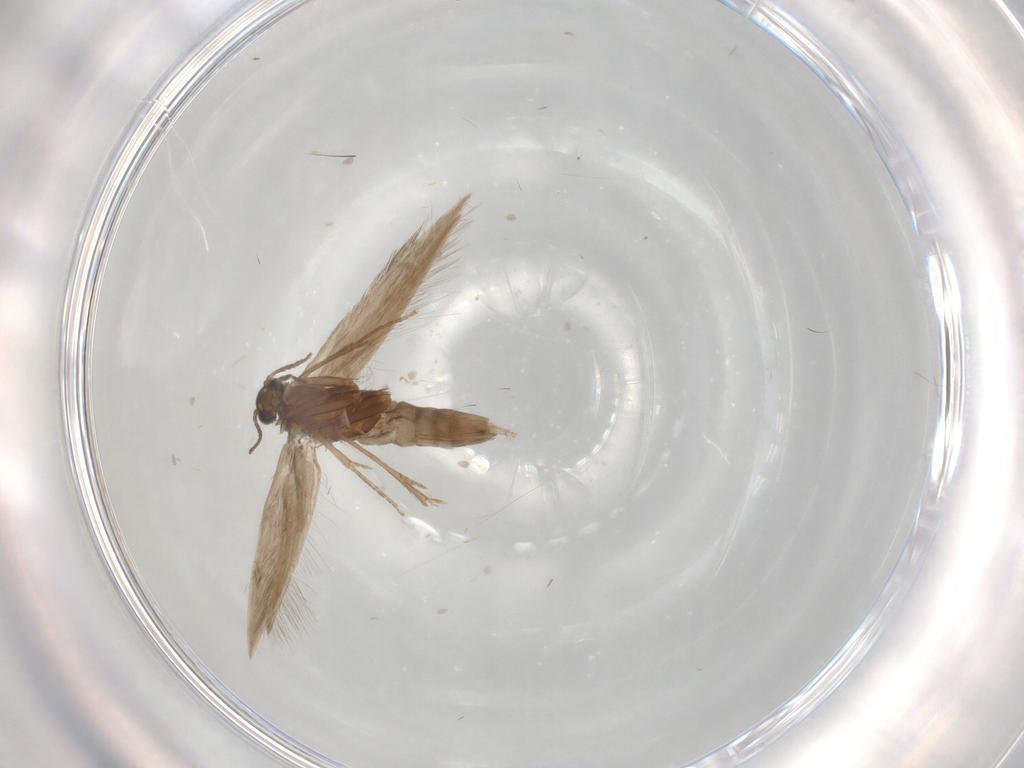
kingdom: Animalia
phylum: Arthropoda
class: Insecta
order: Trichoptera
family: Hydroptilidae
